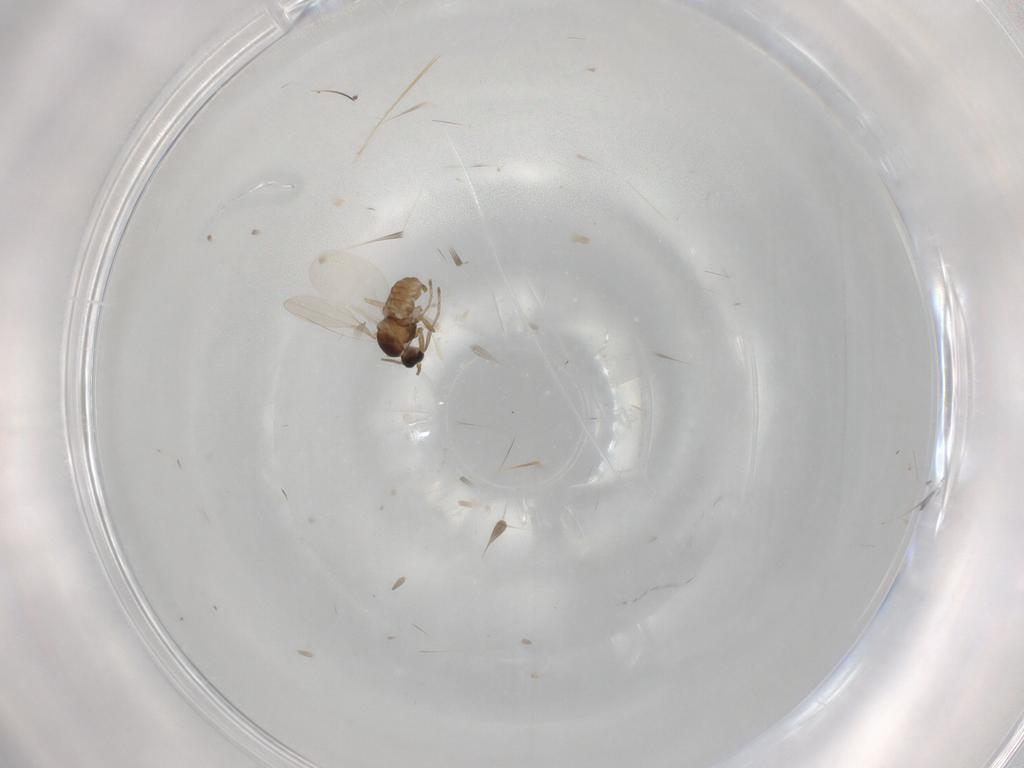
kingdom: Animalia
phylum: Arthropoda
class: Insecta
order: Diptera
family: Cecidomyiidae
